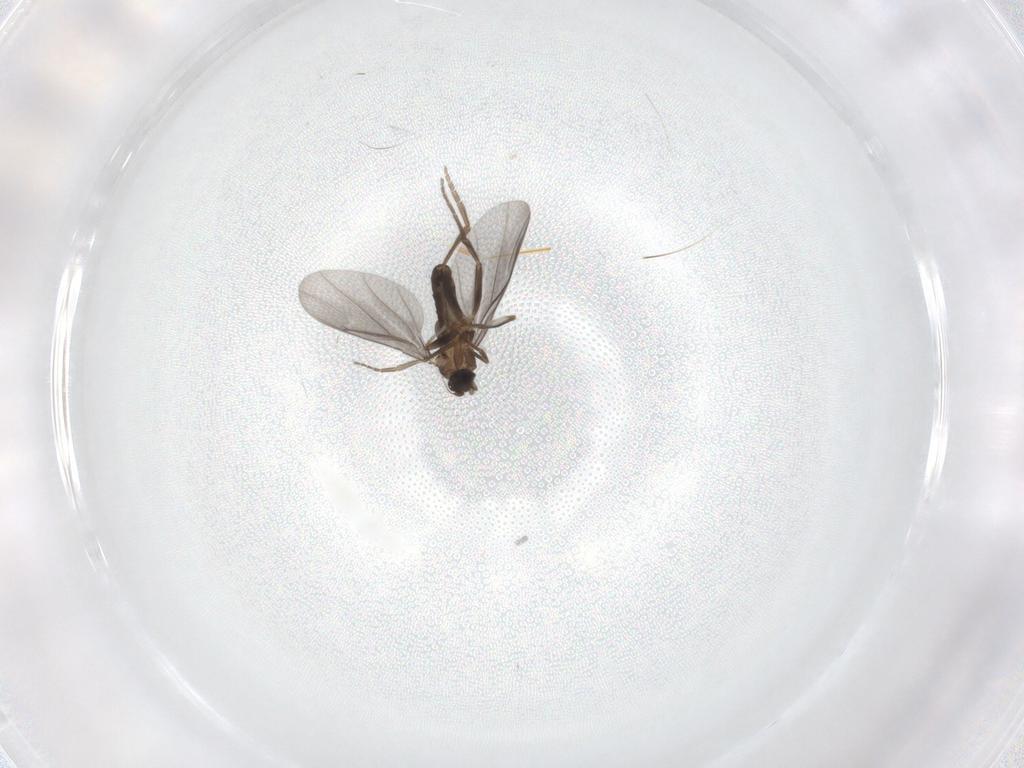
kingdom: Animalia
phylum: Arthropoda
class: Insecta
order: Diptera
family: Phoridae
